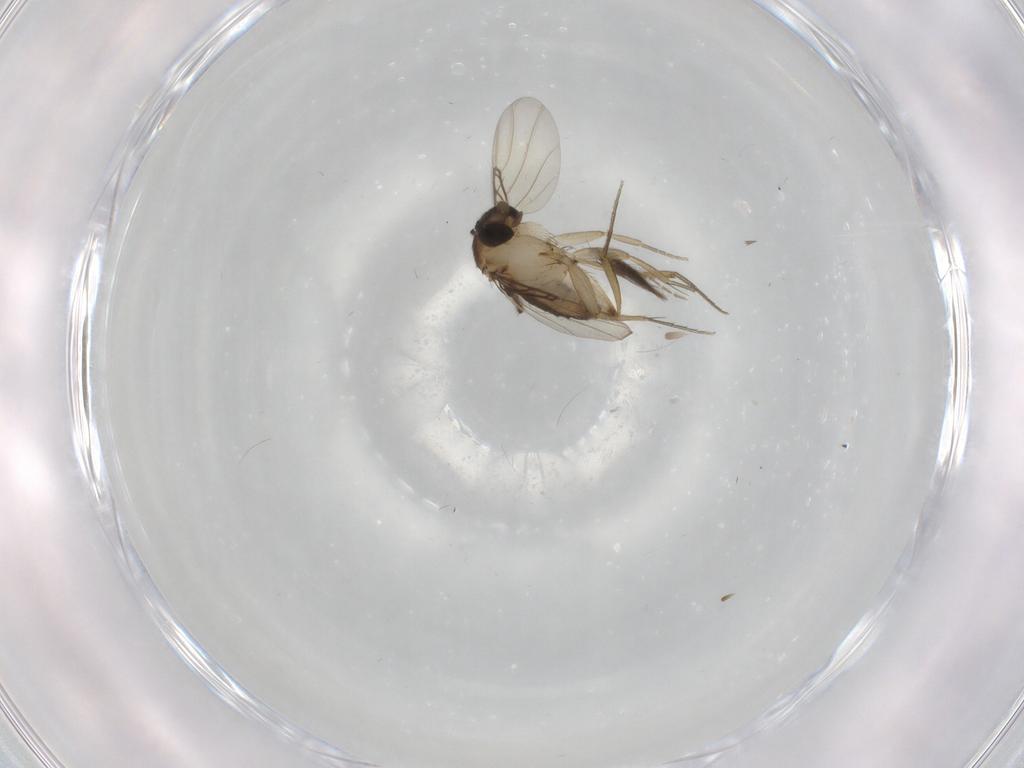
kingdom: Animalia
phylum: Arthropoda
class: Insecta
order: Diptera
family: Phoridae
